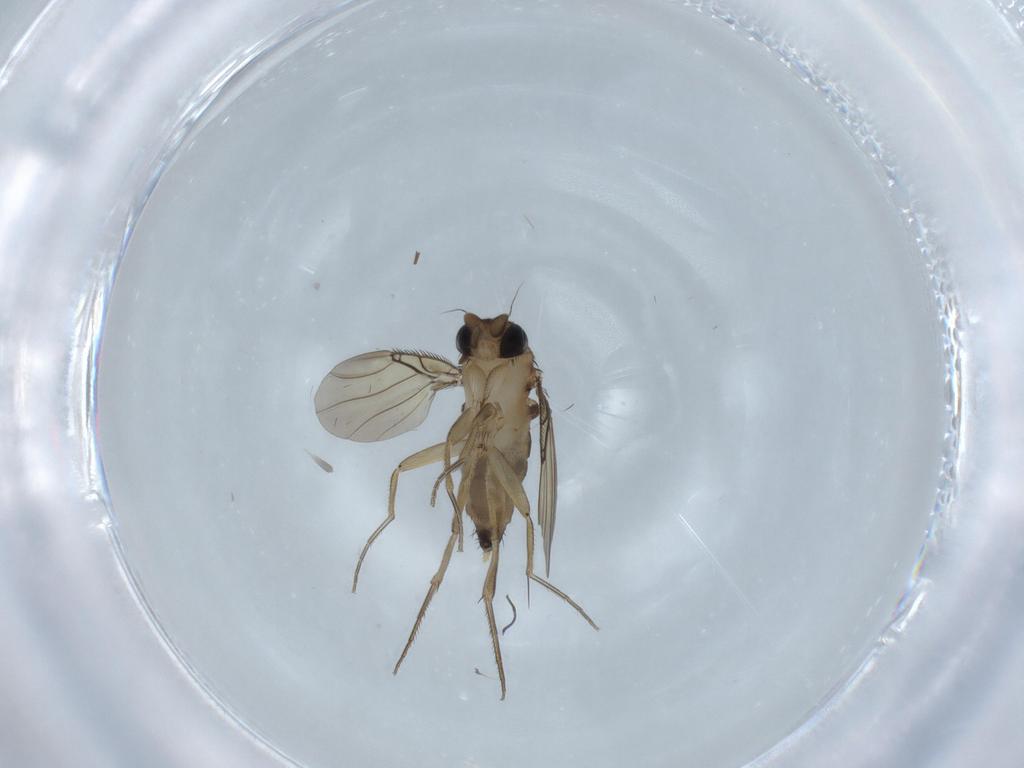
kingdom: Animalia
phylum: Arthropoda
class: Insecta
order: Diptera
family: Phoridae
